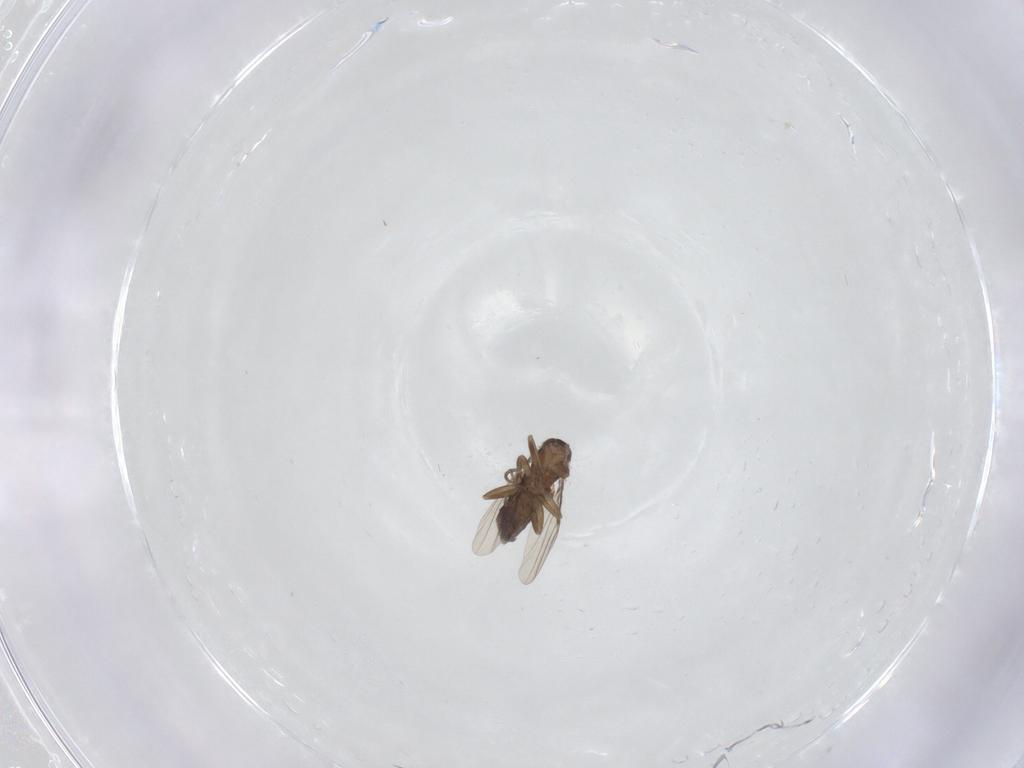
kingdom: Animalia
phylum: Arthropoda
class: Insecta
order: Diptera
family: Phoridae
